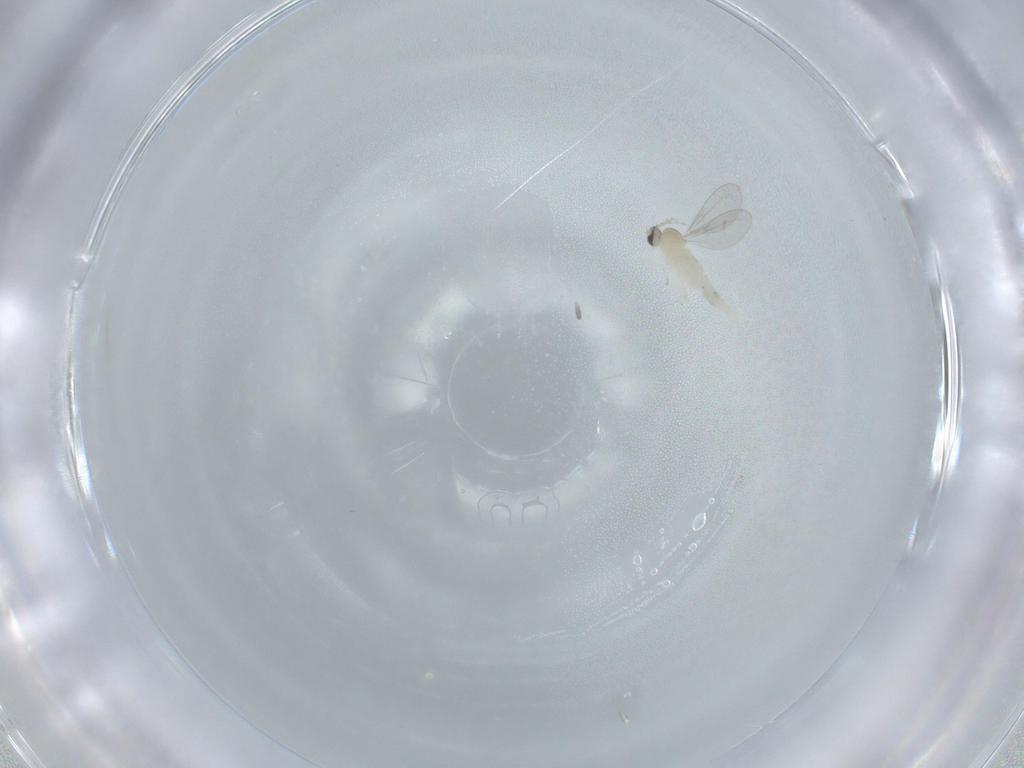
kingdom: Animalia
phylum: Arthropoda
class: Insecta
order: Diptera
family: Cecidomyiidae
